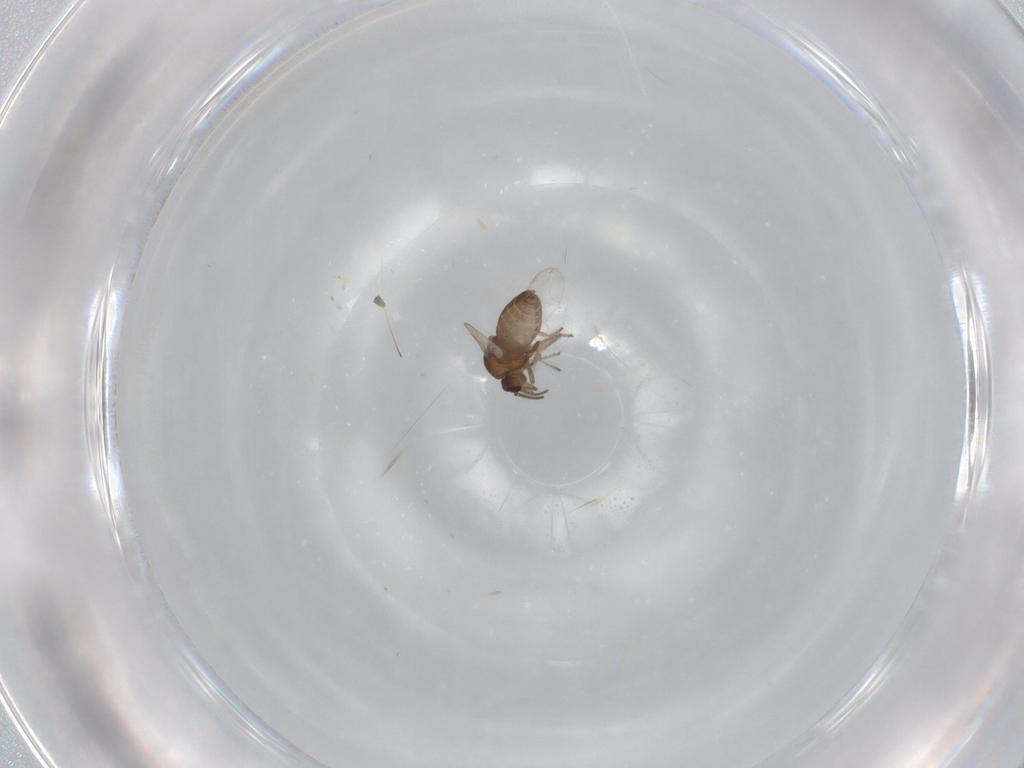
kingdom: Animalia
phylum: Arthropoda
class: Insecta
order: Diptera
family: Ceratopogonidae
